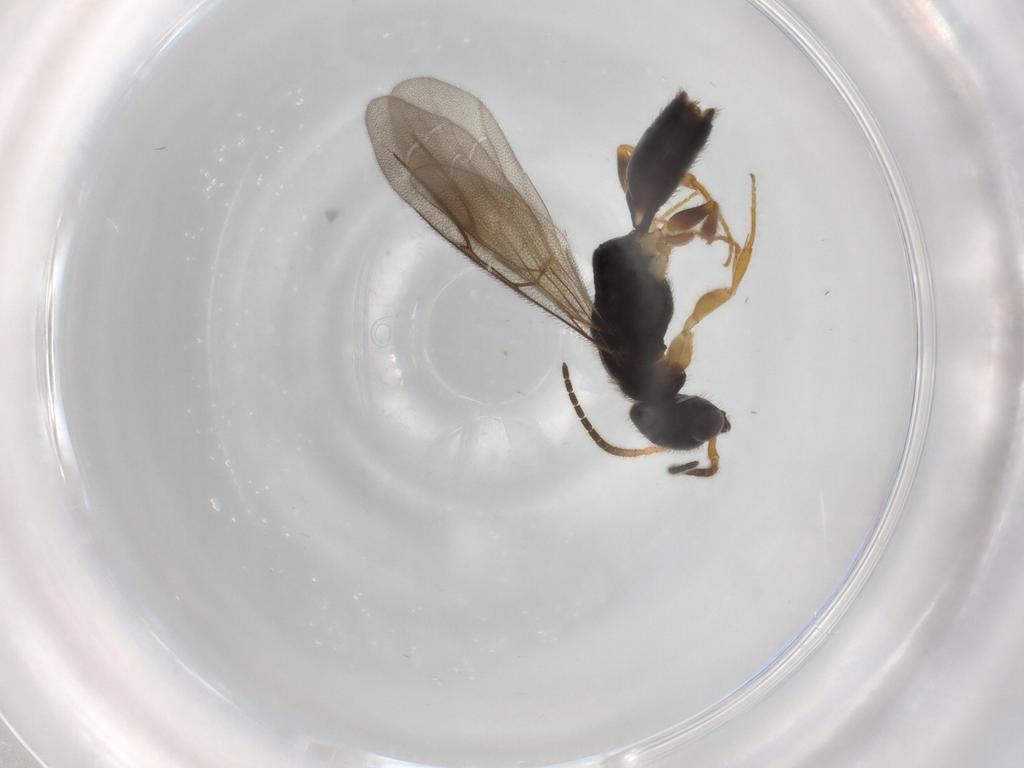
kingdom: Animalia
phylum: Arthropoda
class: Insecta
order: Hymenoptera
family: Bethylidae
